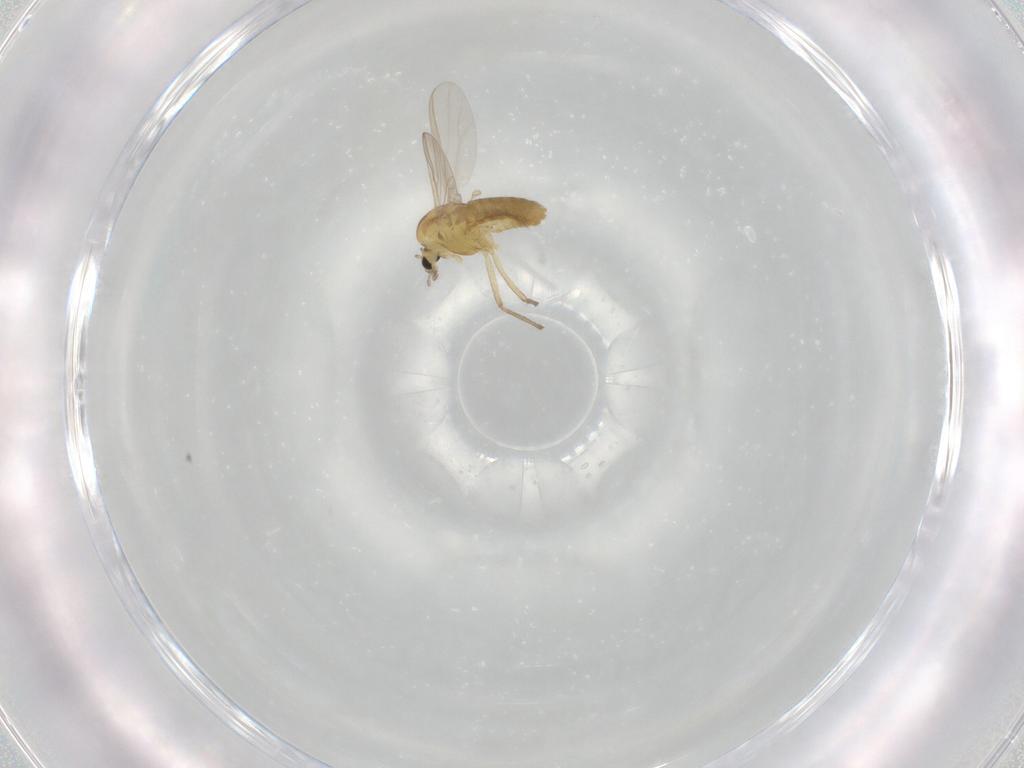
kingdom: Animalia
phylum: Arthropoda
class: Insecta
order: Diptera
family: Chironomidae
